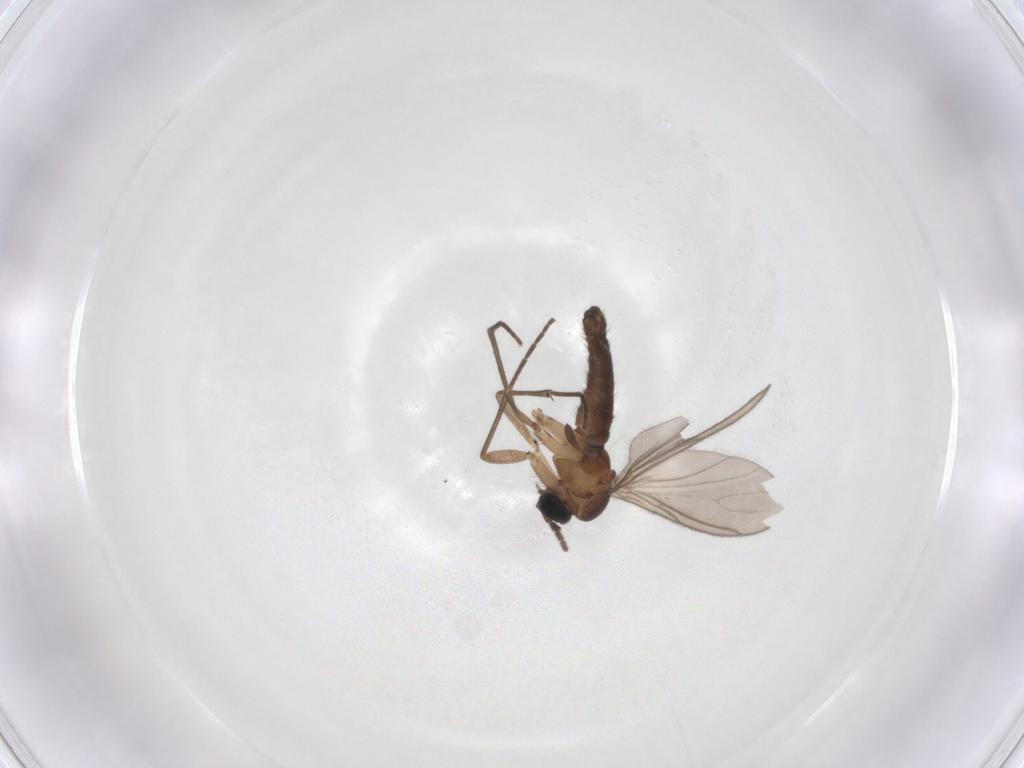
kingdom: Animalia
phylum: Arthropoda
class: Insecta
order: Diptera
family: Sciaridae
